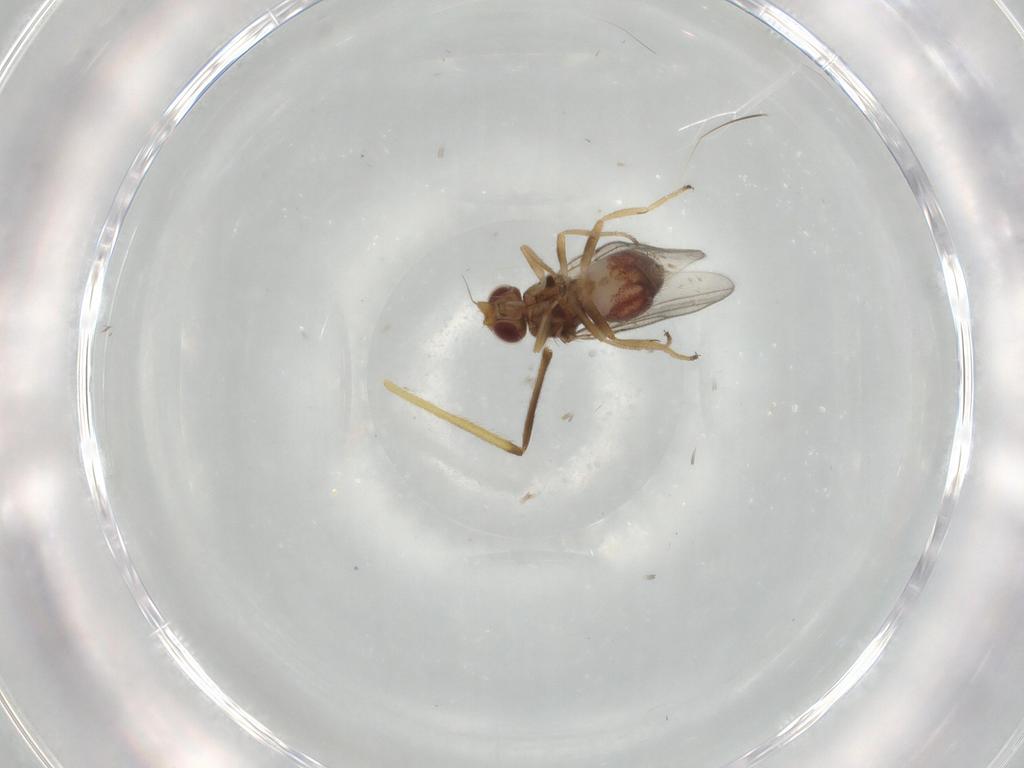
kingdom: Animalia
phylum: Arthropoda
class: Insecta
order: Diptera
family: Chloropidae
